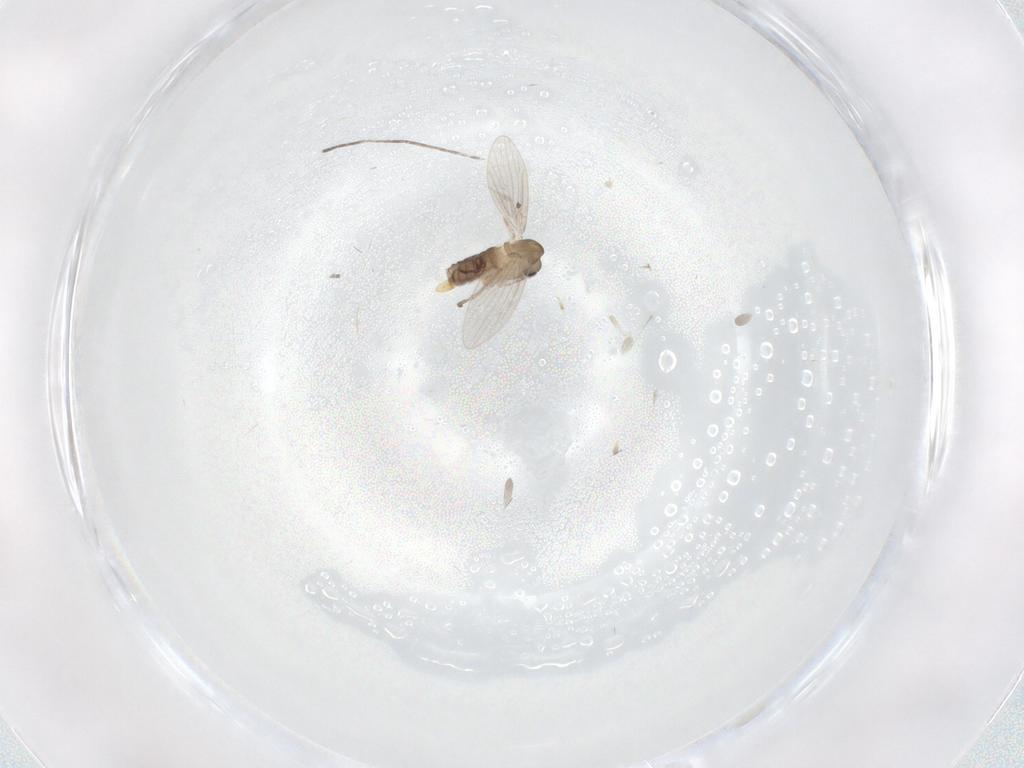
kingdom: Animalia
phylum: Arthropoda
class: Insecta
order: Diptera
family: Psychodidae
